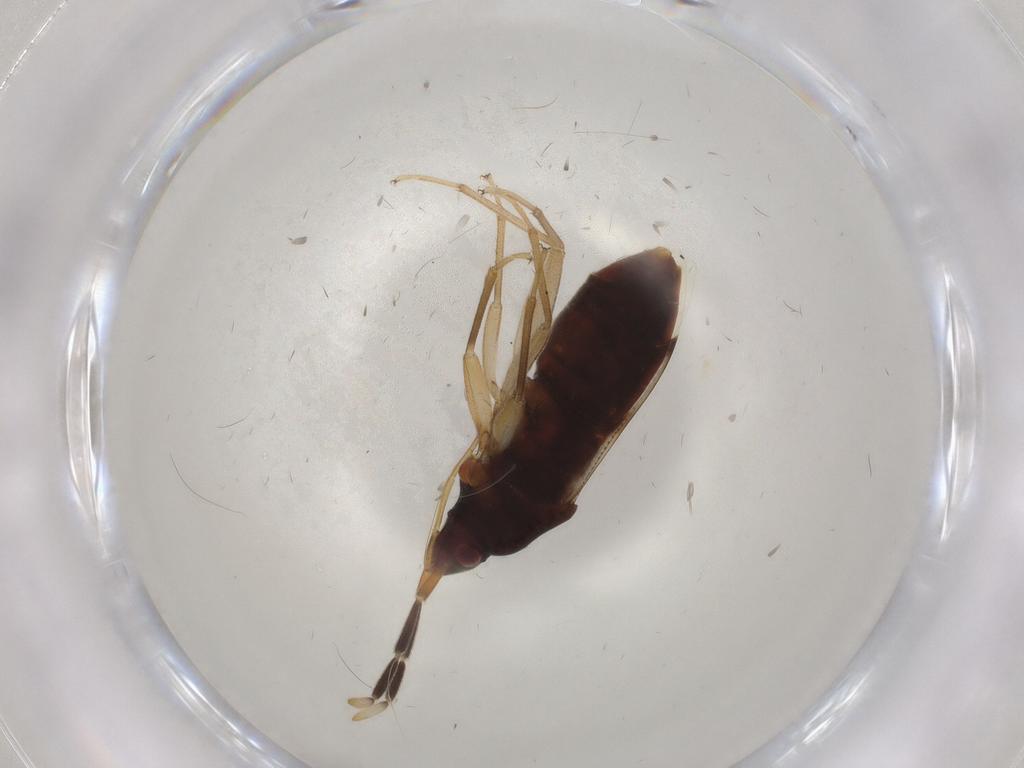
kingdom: Animalia
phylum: Arthropoda
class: Insecta
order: Hemiptera
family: Rhyparochromidae
